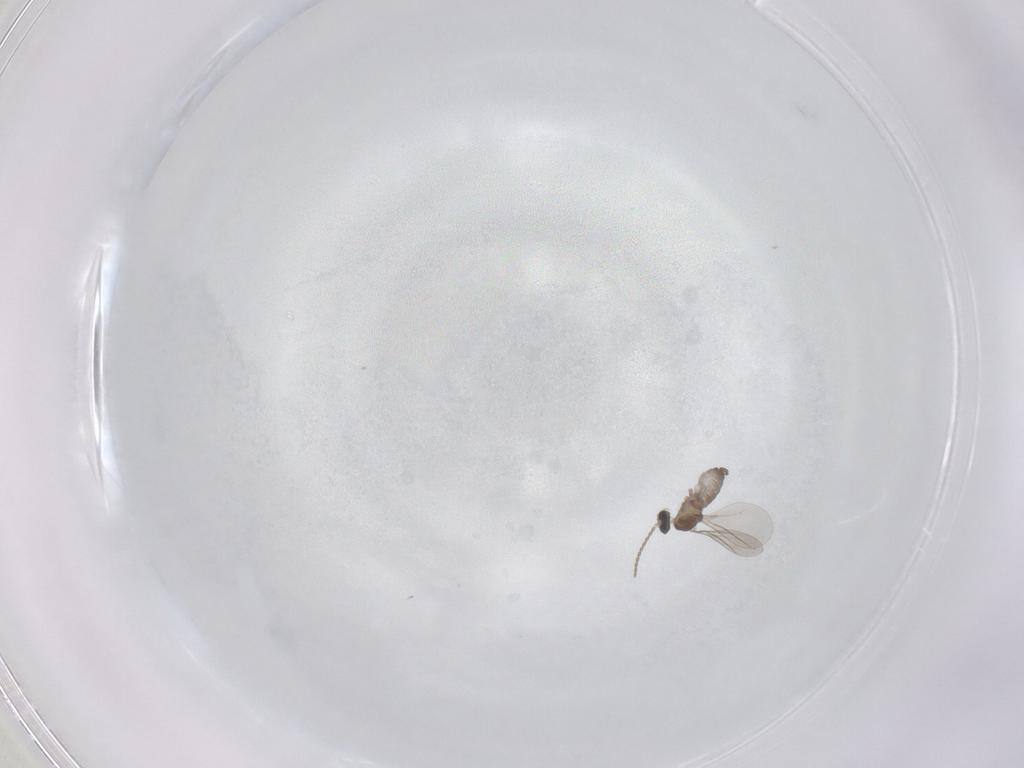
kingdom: Animalia
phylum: Arthropoda
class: Insecta
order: Diptera
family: Cecidomyiidae
